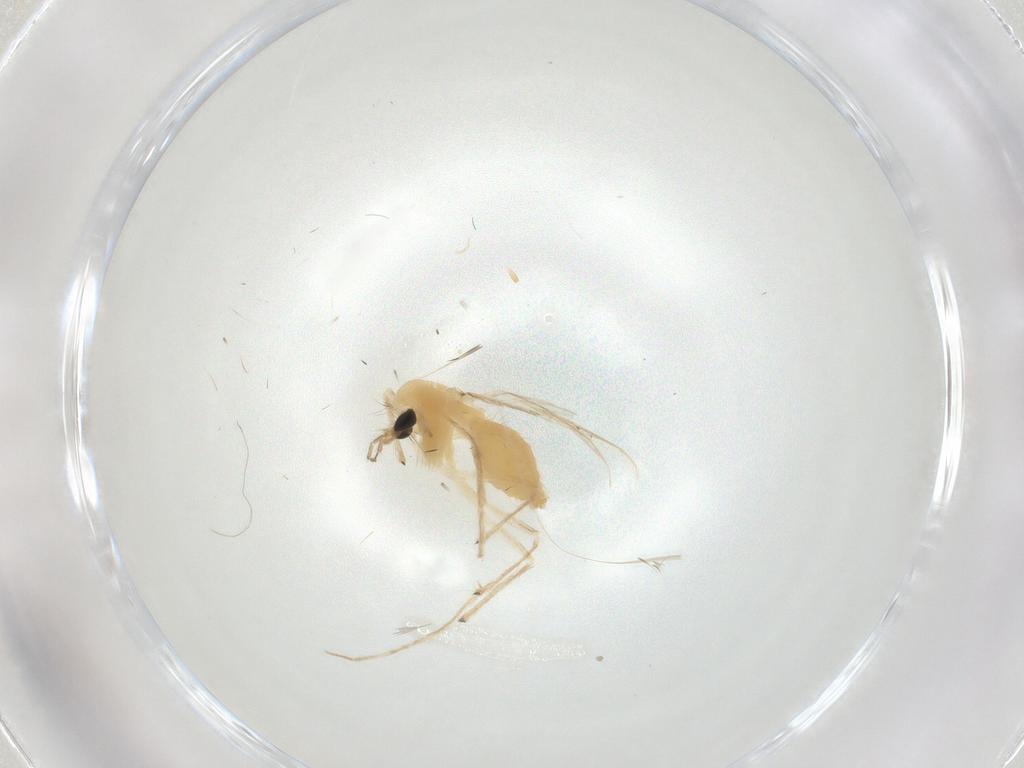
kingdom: Animalia
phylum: Arthropoda
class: Insecta
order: Diptera
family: Chironomidae
